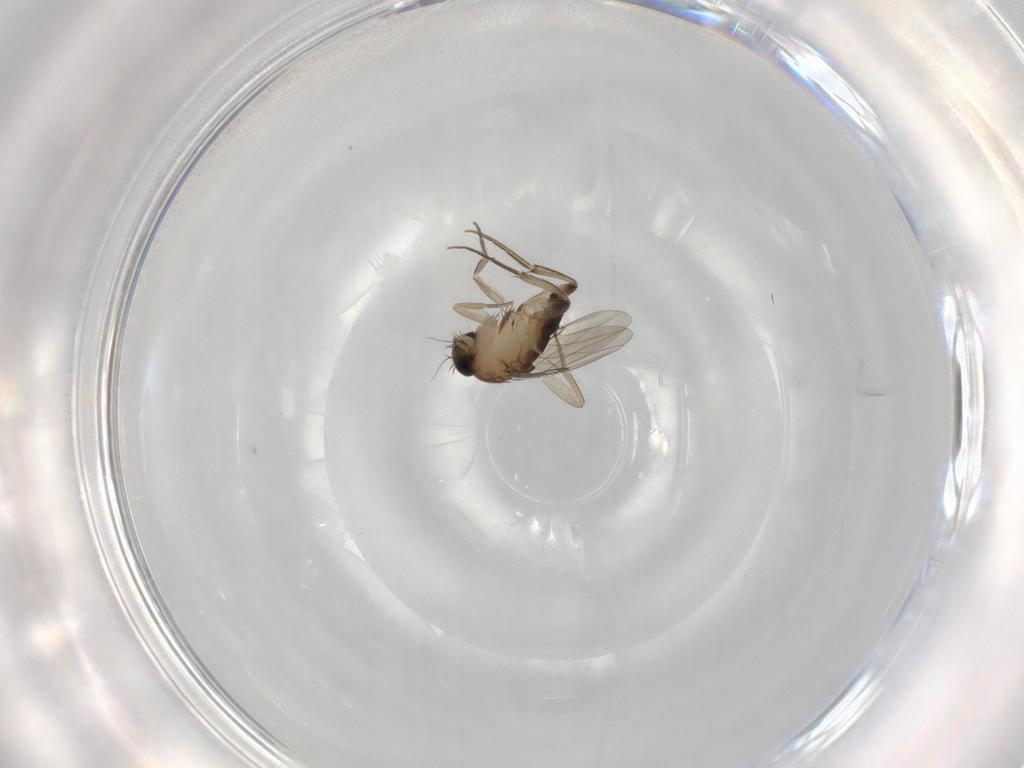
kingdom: Animalia
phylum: Arthropoda
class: Insecta
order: Diptera
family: Phoridae
